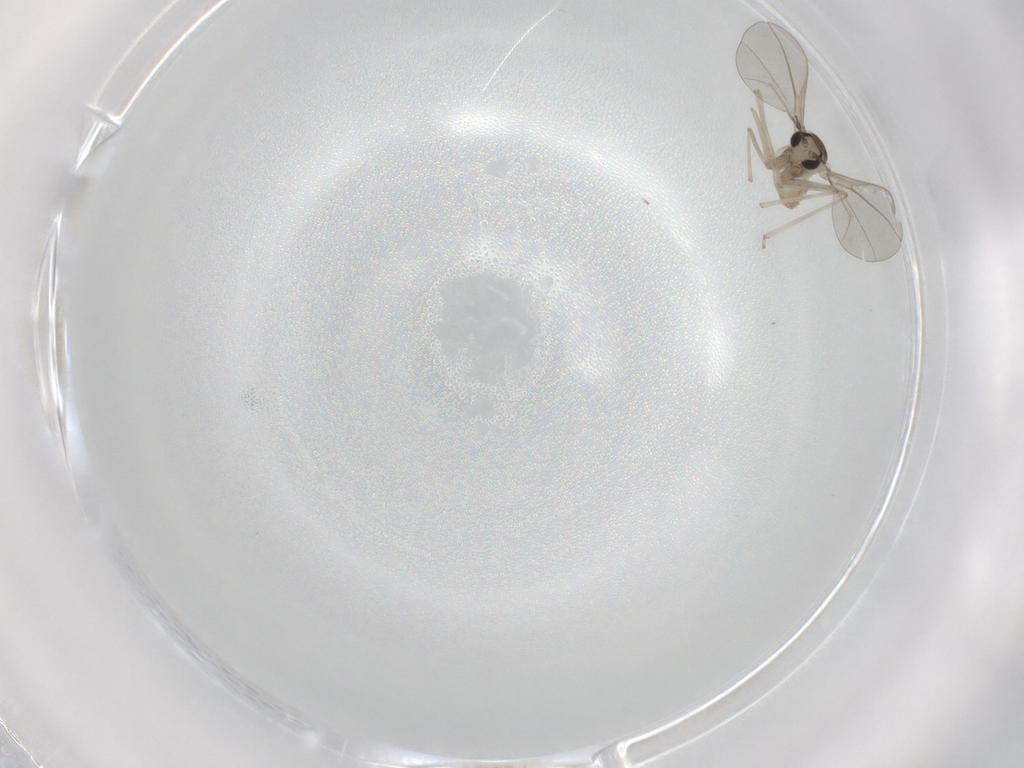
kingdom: Animalia
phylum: Arthropoda
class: Insecta
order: Diptera
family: Cecidomyiidae
